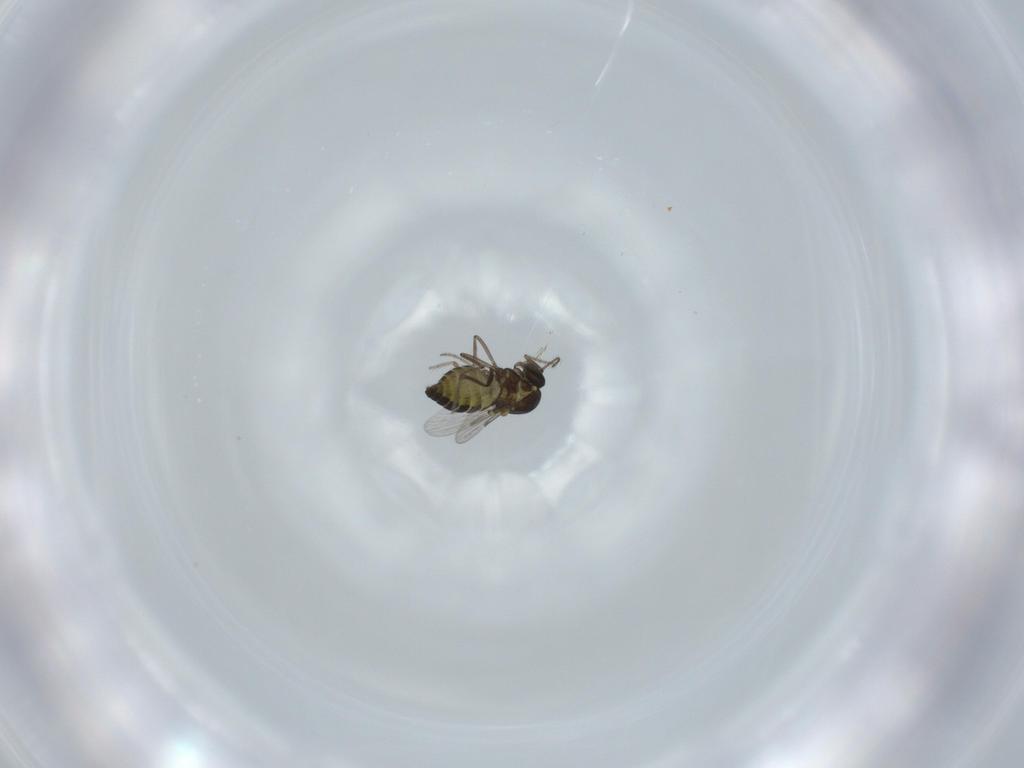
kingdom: Animalia
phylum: Arthropoda
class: Insecta
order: Diptera
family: Ceratopogonidae
